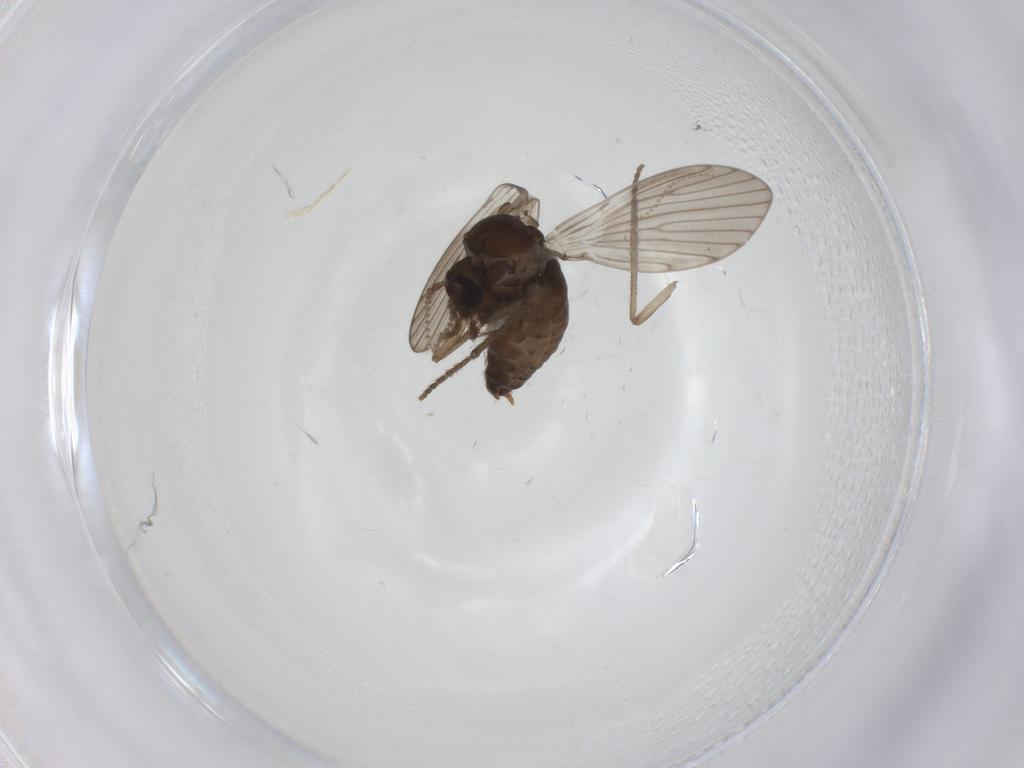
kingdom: Animalia
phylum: Arthropoda
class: Insecta
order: Diptera
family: Psychodidae
